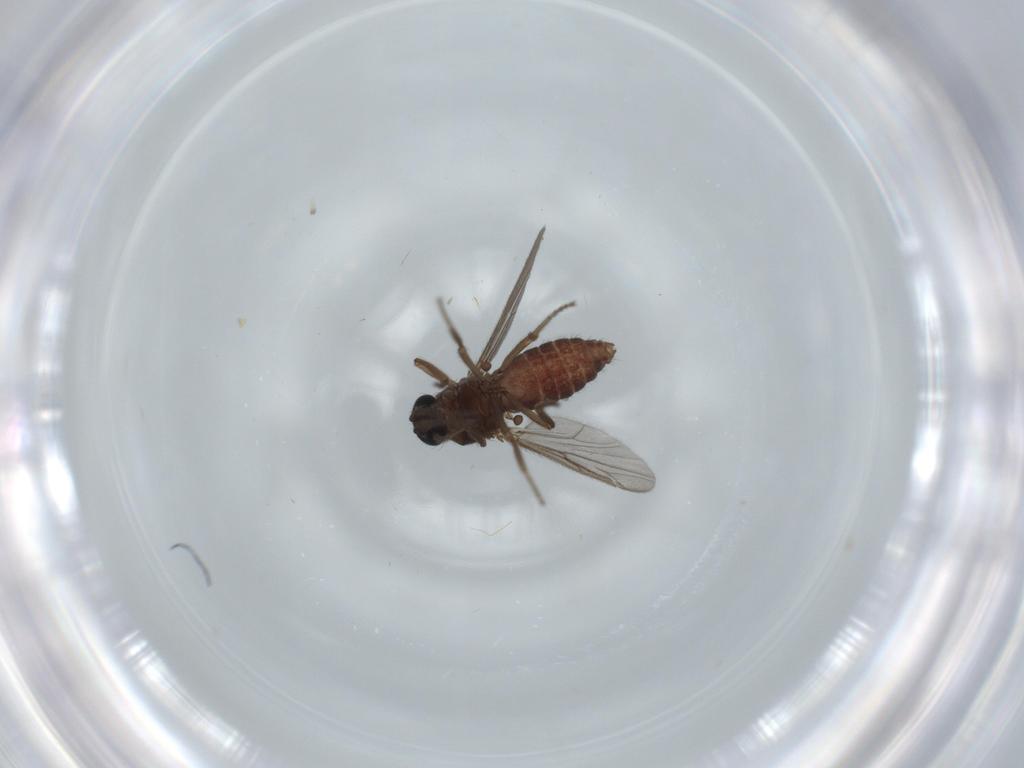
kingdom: Animalia
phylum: Arthropoda
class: Insecta
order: Diptera
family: Ceratopogonidae
